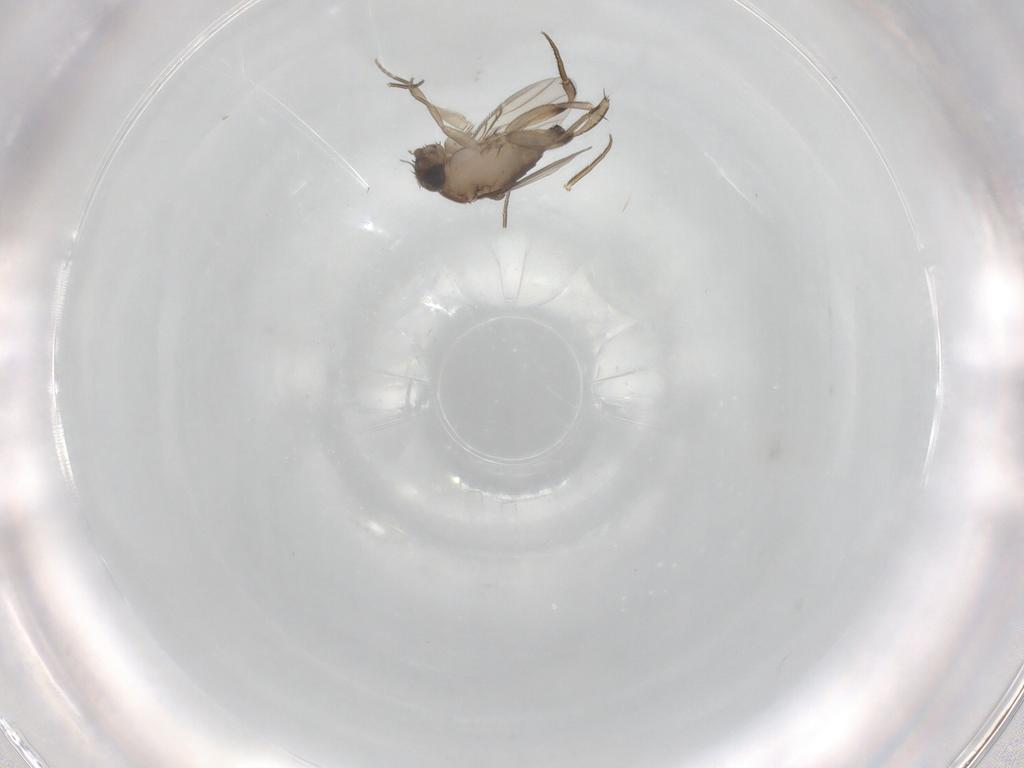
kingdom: Animalia
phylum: Arthropoda
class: Insecta
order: Diptera
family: Phoridae
